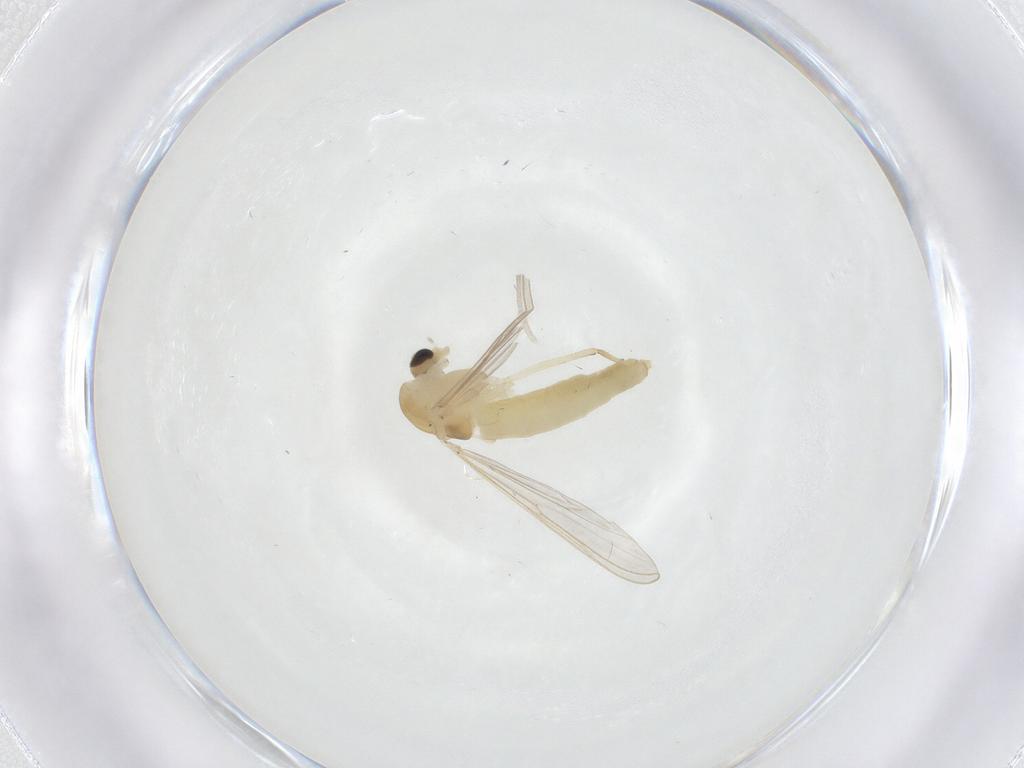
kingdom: Animalia
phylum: Arthropoda
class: Insecta
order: Diptera
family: Chironomidae
